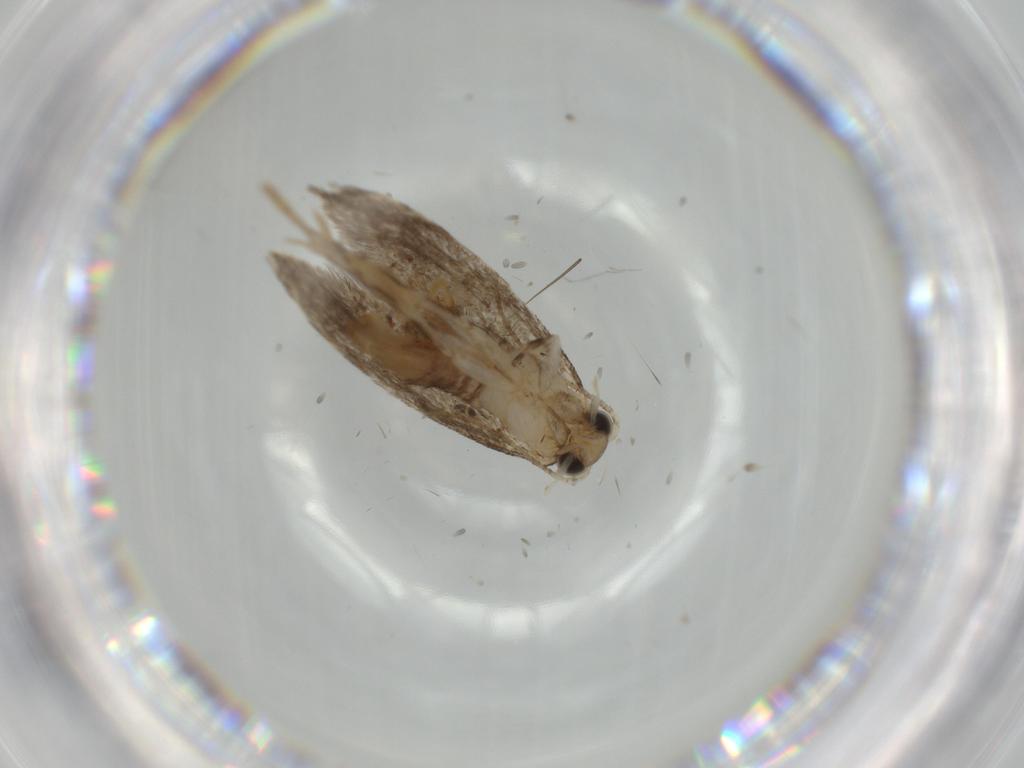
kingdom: Animalia
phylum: Arthropoda
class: Insecta
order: Lepidoptera
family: Tineidae
